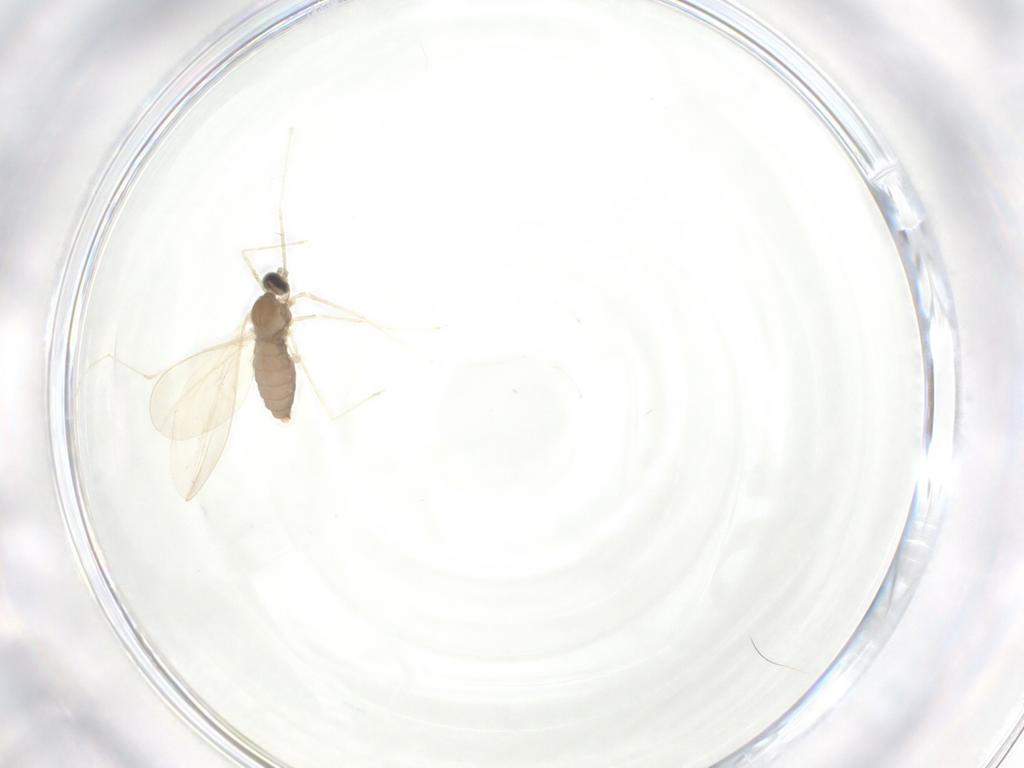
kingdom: Animalia
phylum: Arthropoda
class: Insecta
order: Diptera
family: Cecidomyiidae
